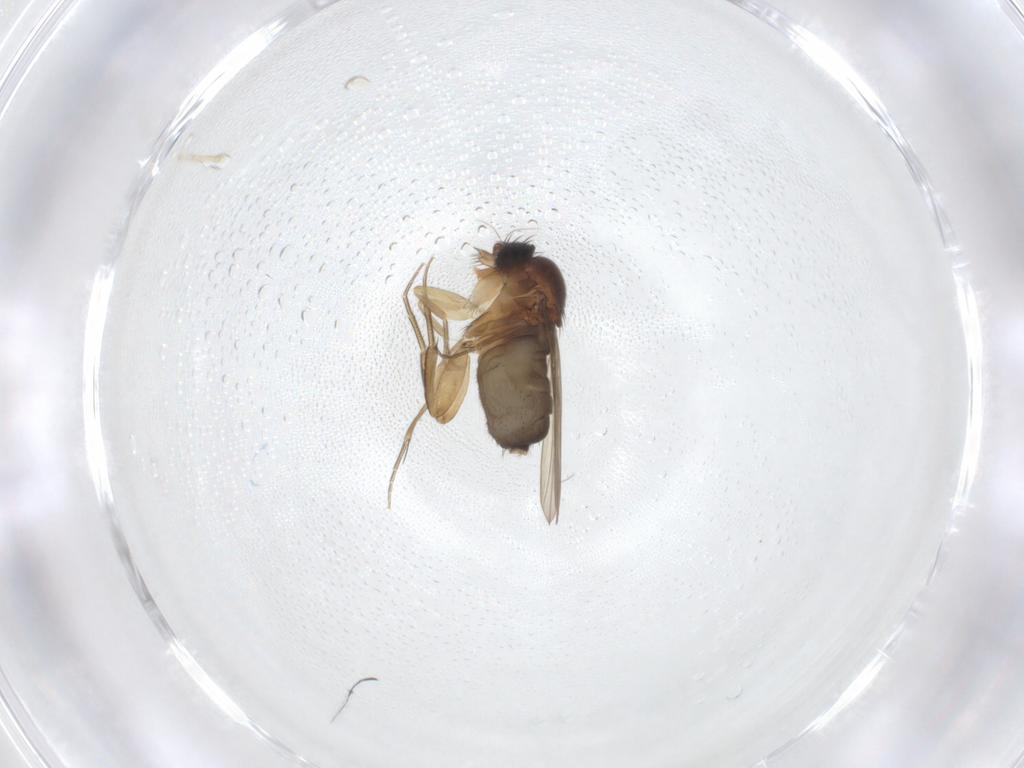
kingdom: Animalia
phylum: Arthropoda
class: Insecta
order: Diptera
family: Phoridae
